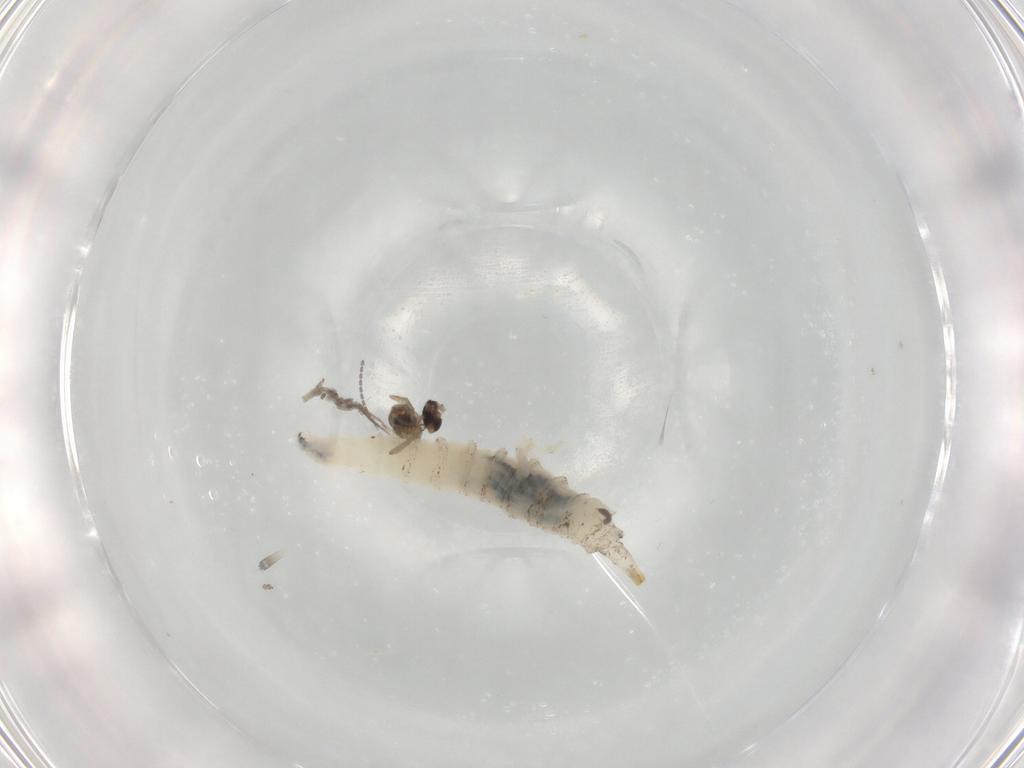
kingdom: Animalia
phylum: Arthropoda
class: Insecta
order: Diptera
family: Cecidomyiidae
